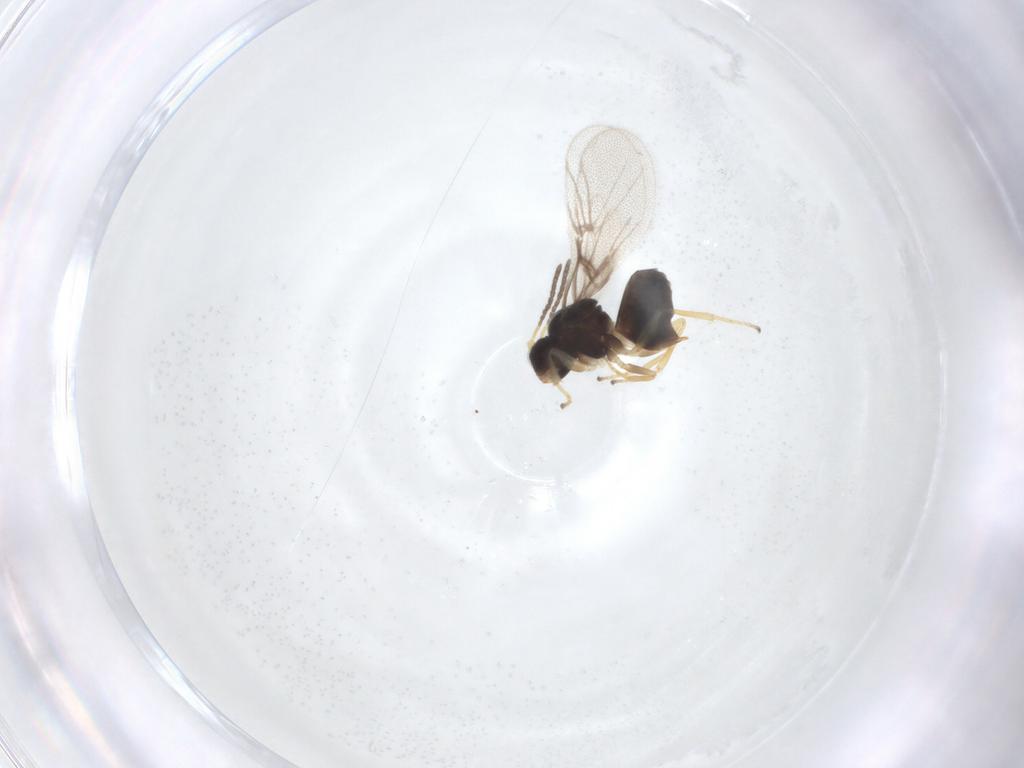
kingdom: Animalia
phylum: Arthropoda
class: Insecta
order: Hymenoptera
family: Cynipidae
